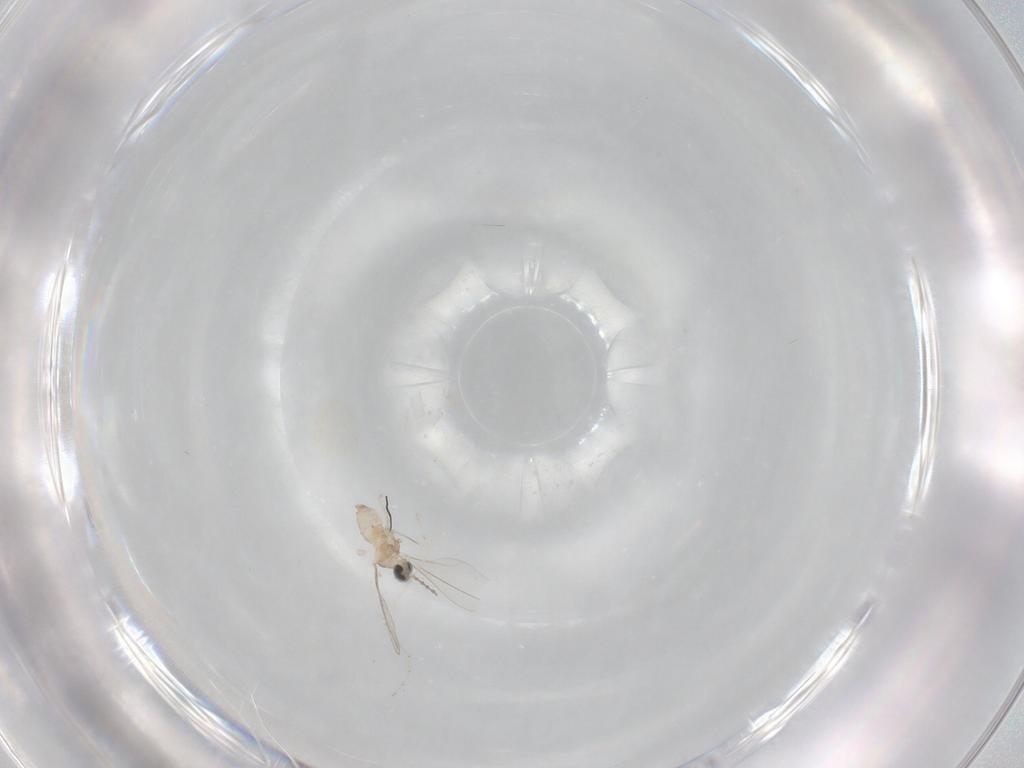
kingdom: Animalia
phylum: Arthropoda
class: Insecta
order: Diptera
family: Cecidomyiidae
